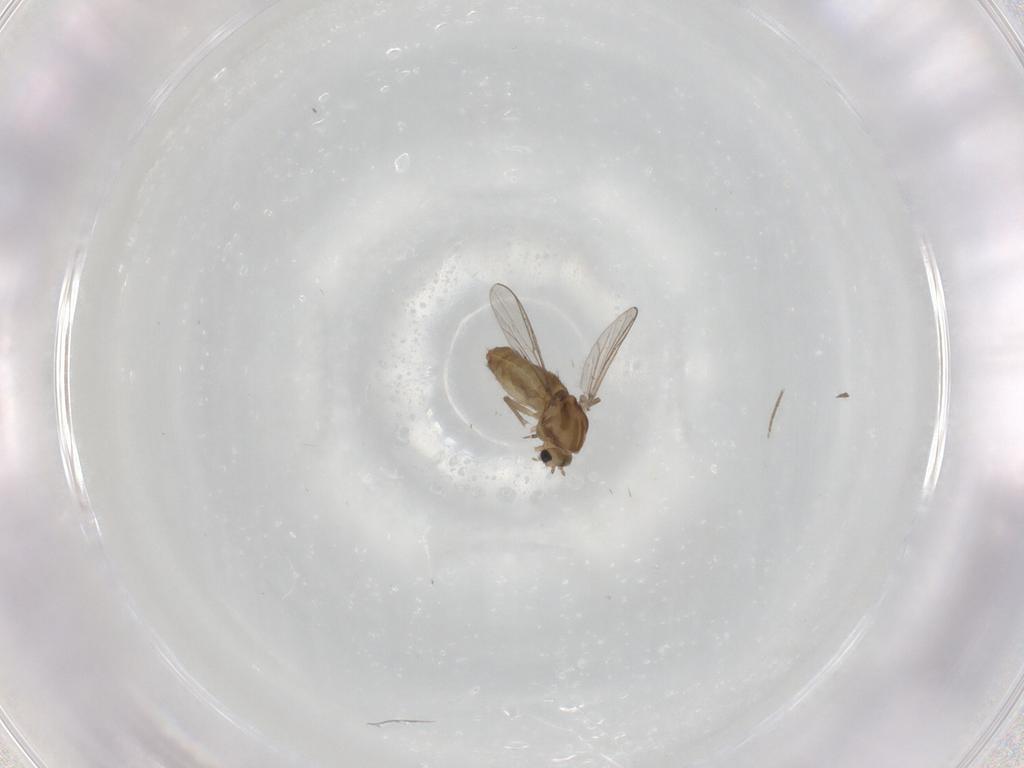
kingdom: Animalia
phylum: Arthropoda
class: Insecta
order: Diptera
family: Chironomidae
